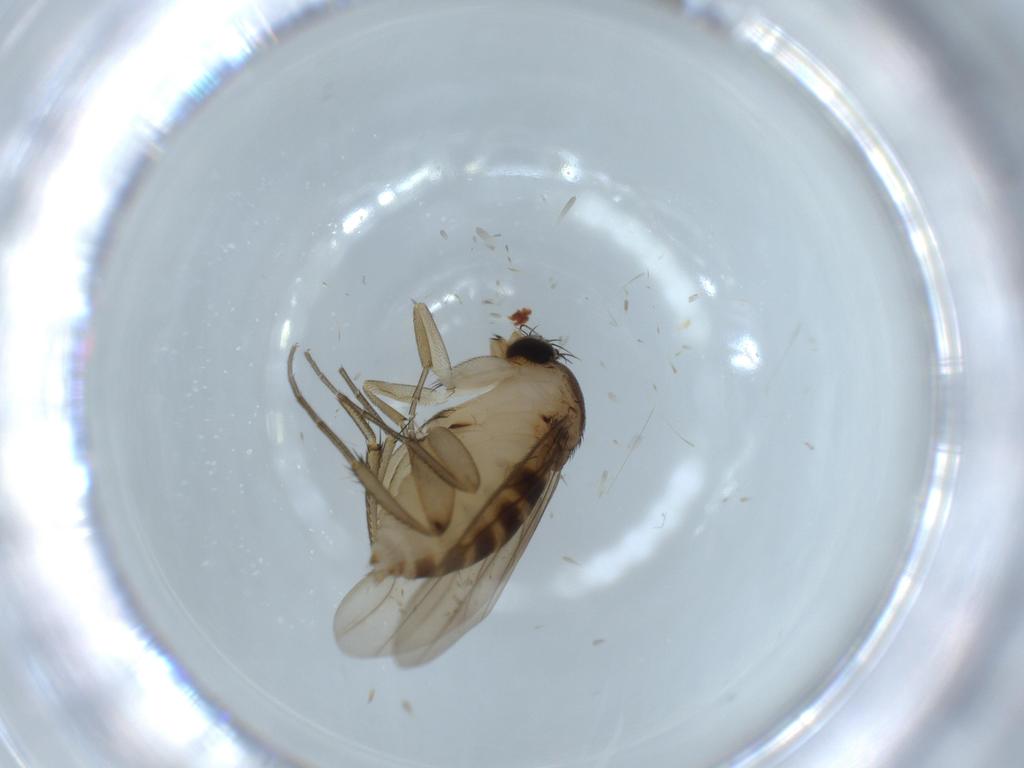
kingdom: Animalia
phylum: Arthropoda
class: Insecta
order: Diptera
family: Phoridae
